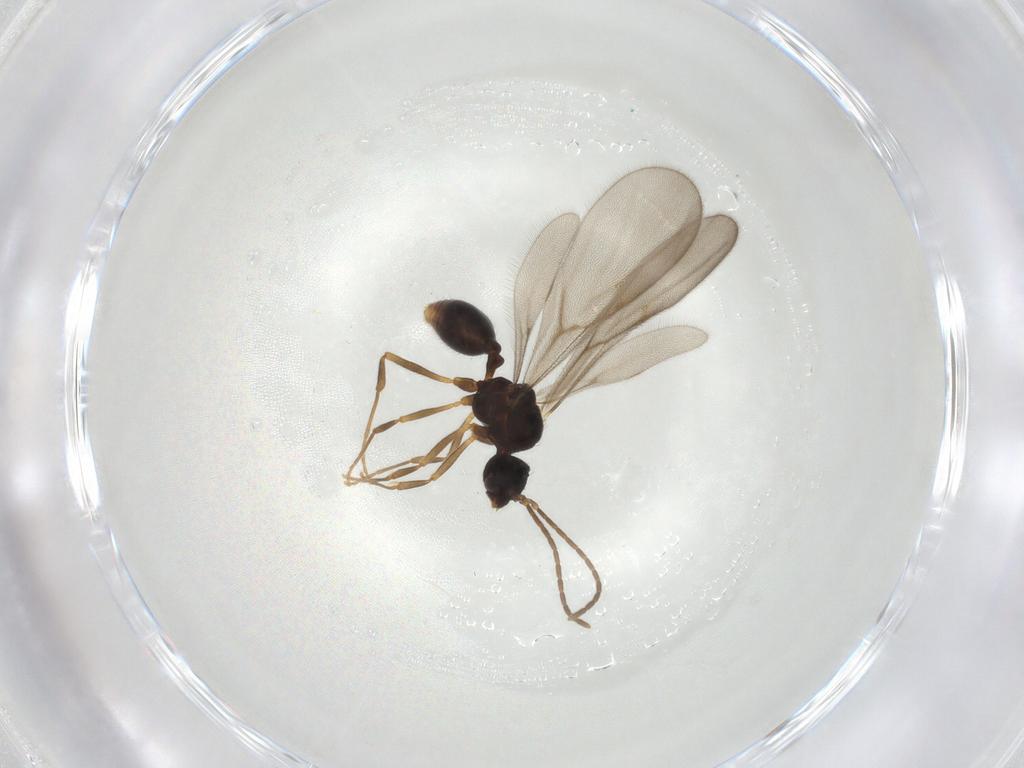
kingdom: Animalia
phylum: Arthropoda
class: Insecta
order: Hymenoptera
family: Formicidae
